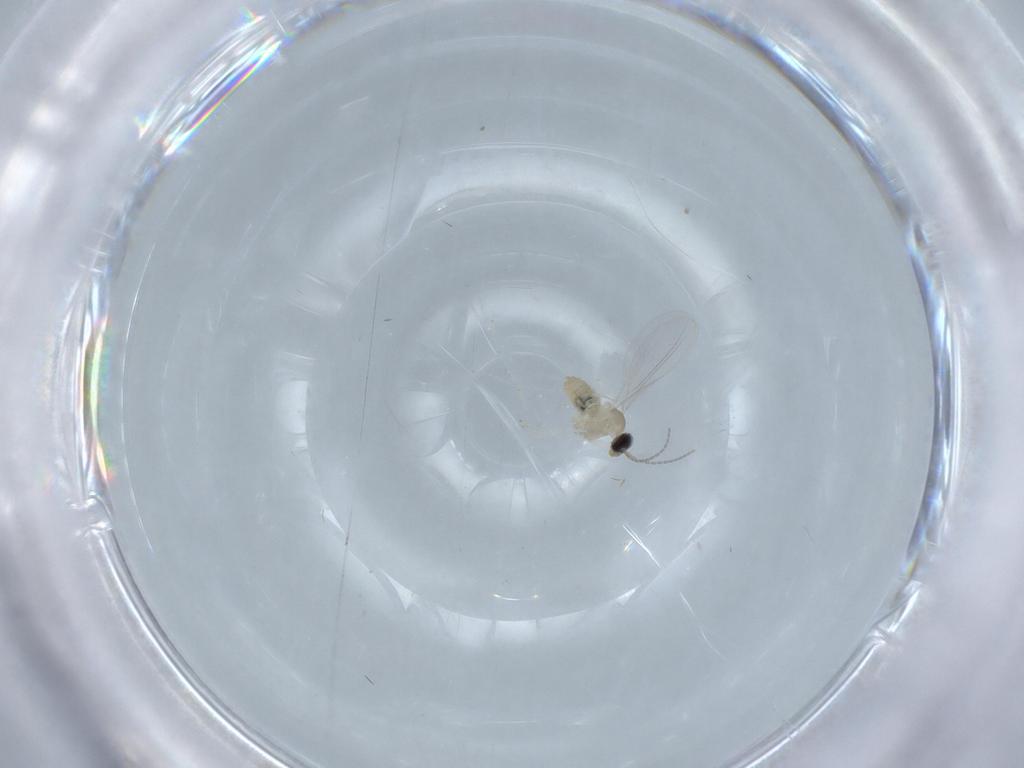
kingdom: Animalia
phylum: Arthropoda
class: Insecta
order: Diptera
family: Cecidomyiidae
